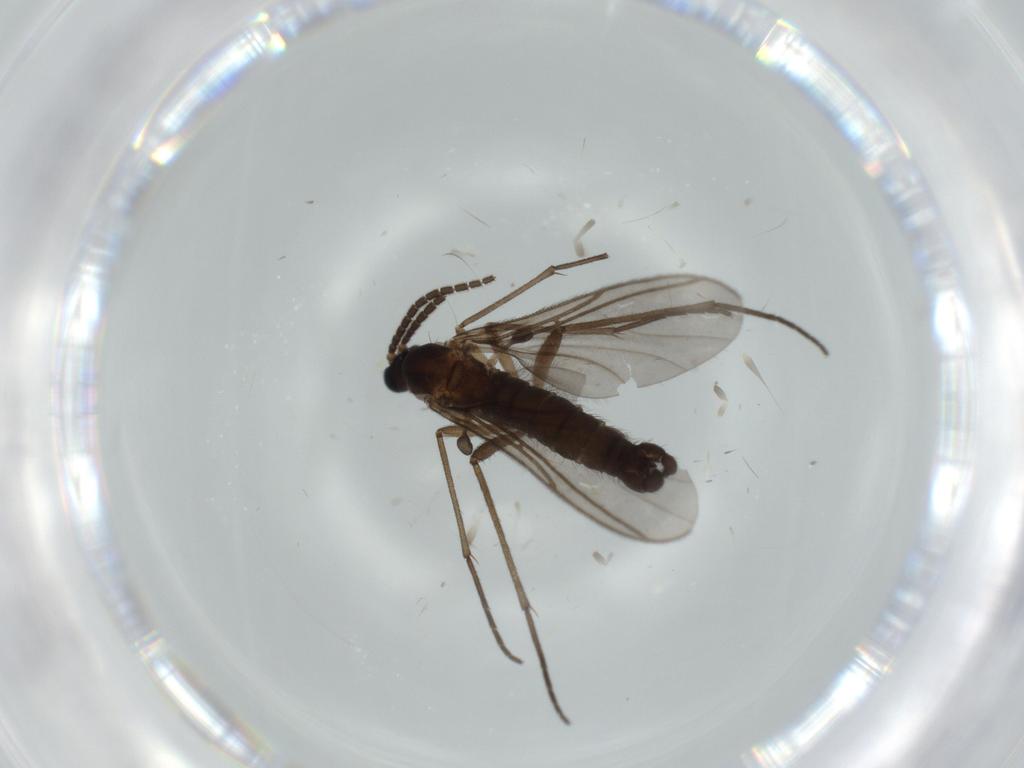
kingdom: Animalia
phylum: Arthropoda
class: Insecta
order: Diptera
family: Sciaridae
